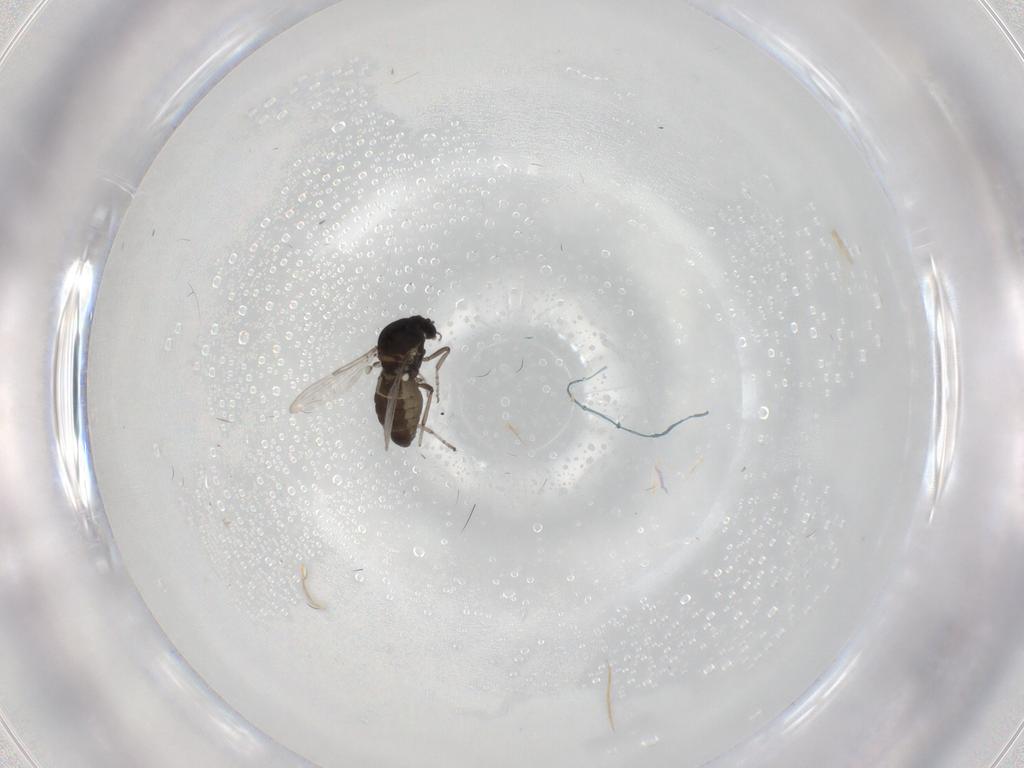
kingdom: Animalia
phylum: Arthropoda
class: Insecta
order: Diptera
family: Ceratopogonidae
